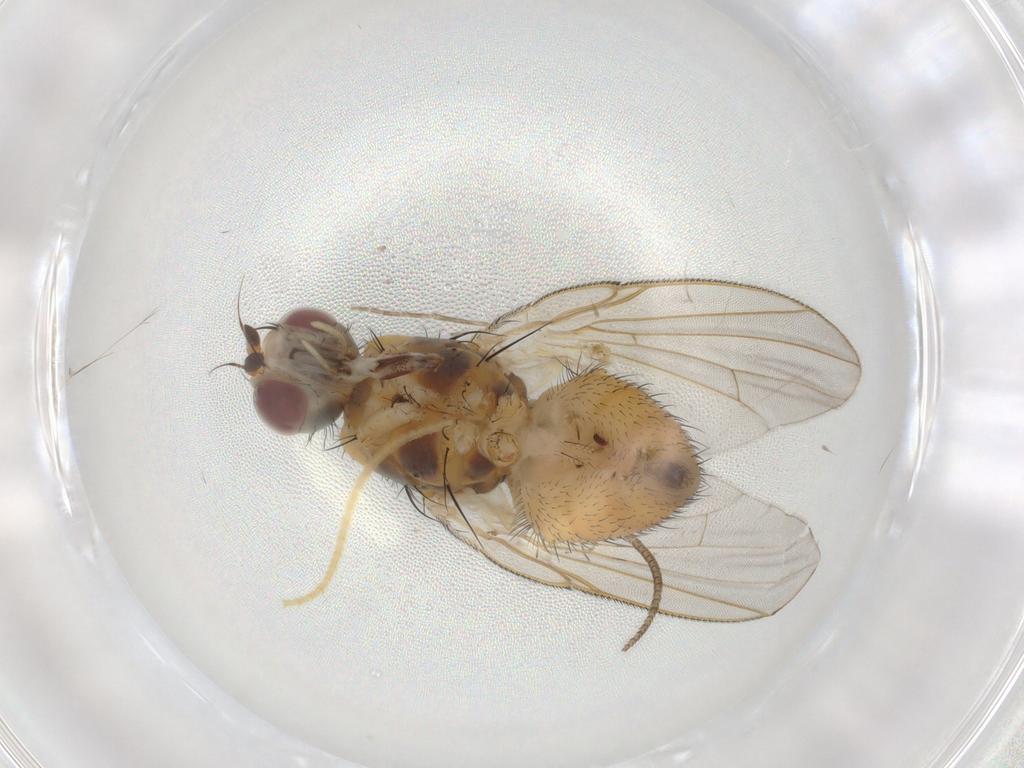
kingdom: Animalia
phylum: Arthropoda
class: Insecta
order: Diptera
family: Muscidae
